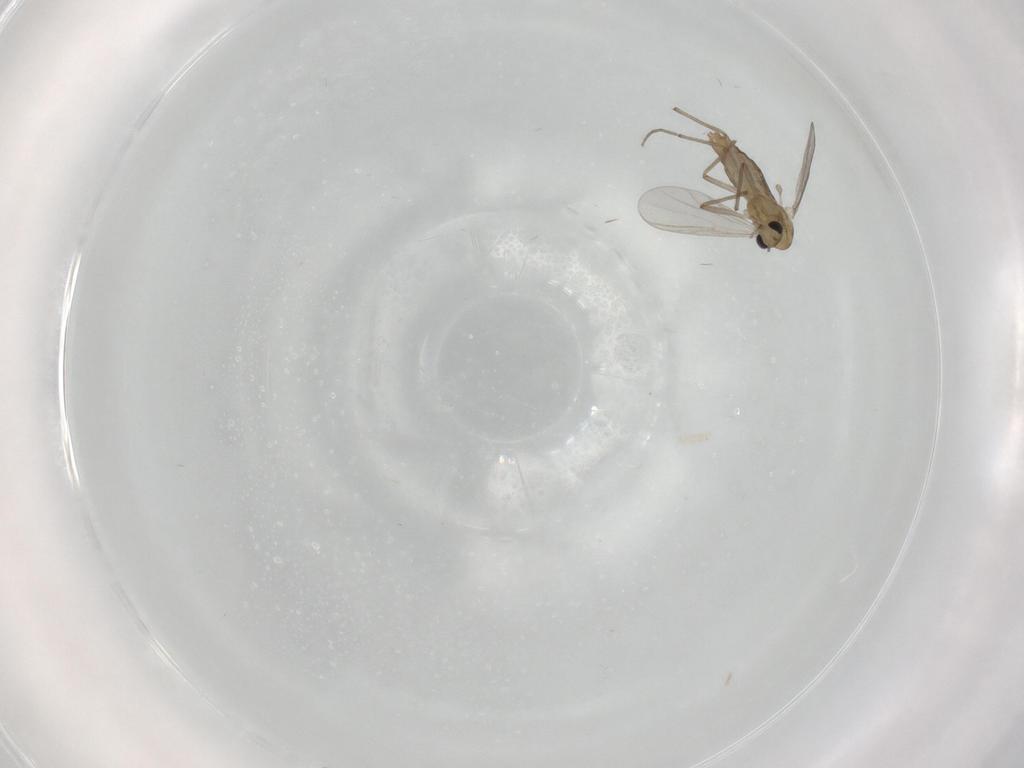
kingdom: Animalia
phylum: Arthropoda
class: Insecta
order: Diptera
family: Chironomidae
